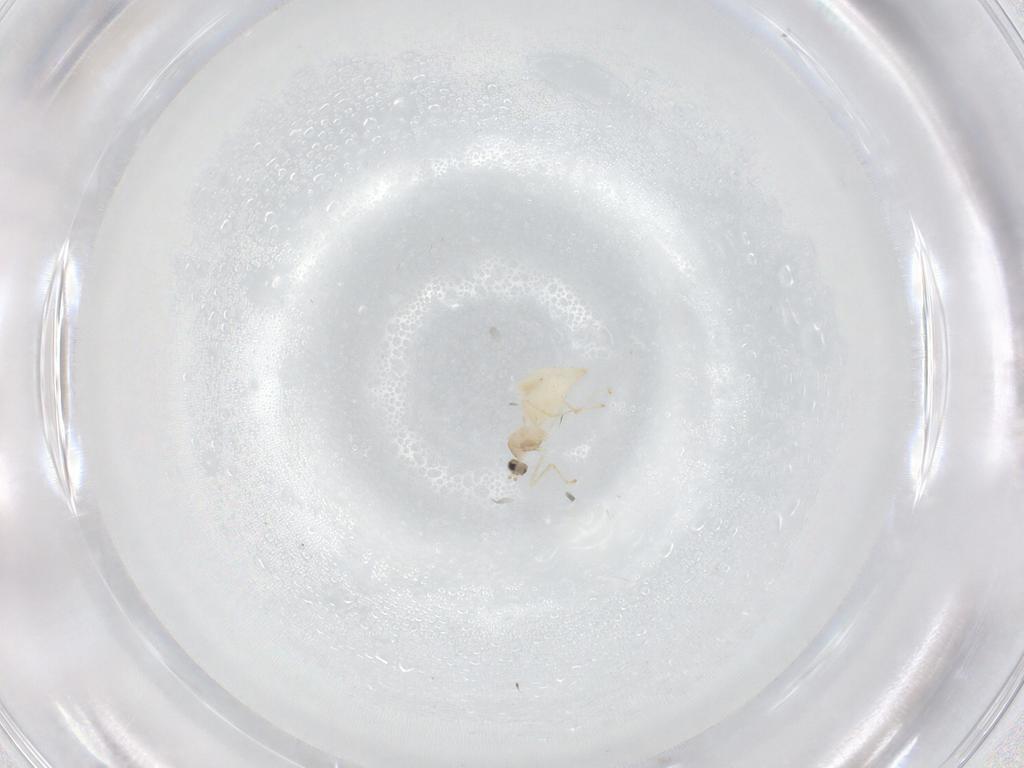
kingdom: Animalia
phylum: Arthropoda
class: Insecta
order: Diptera
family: Cecidomyiidae
